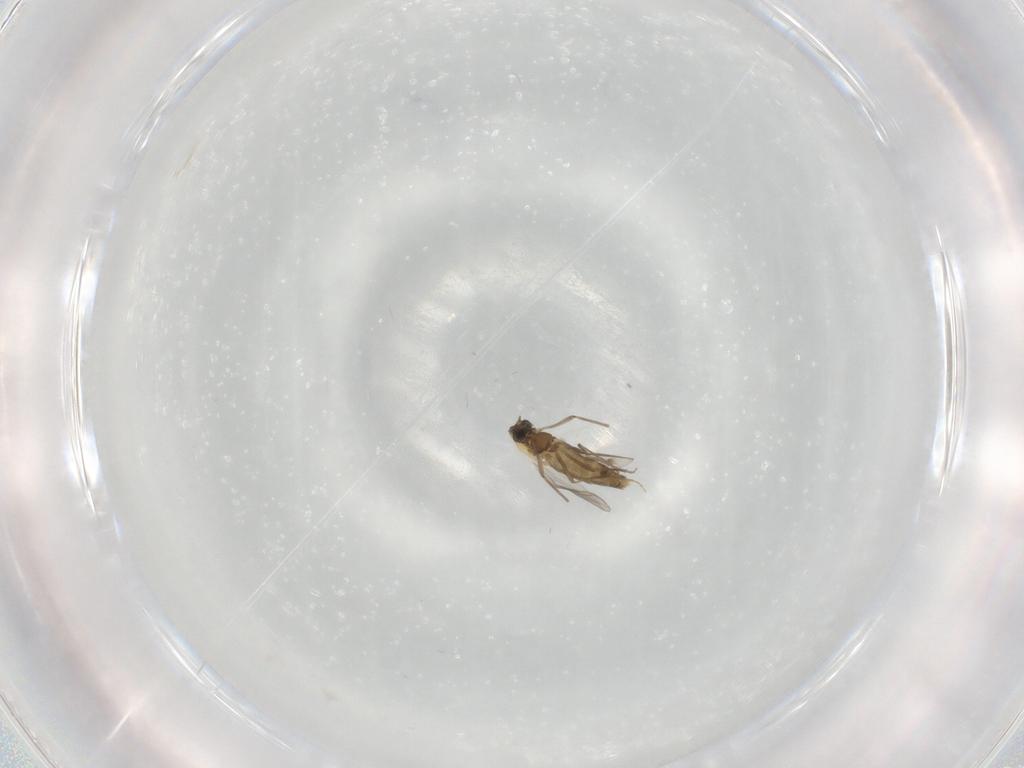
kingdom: Animalia
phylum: Arthropoda
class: Insecta
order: Diptera
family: Chironomidae
